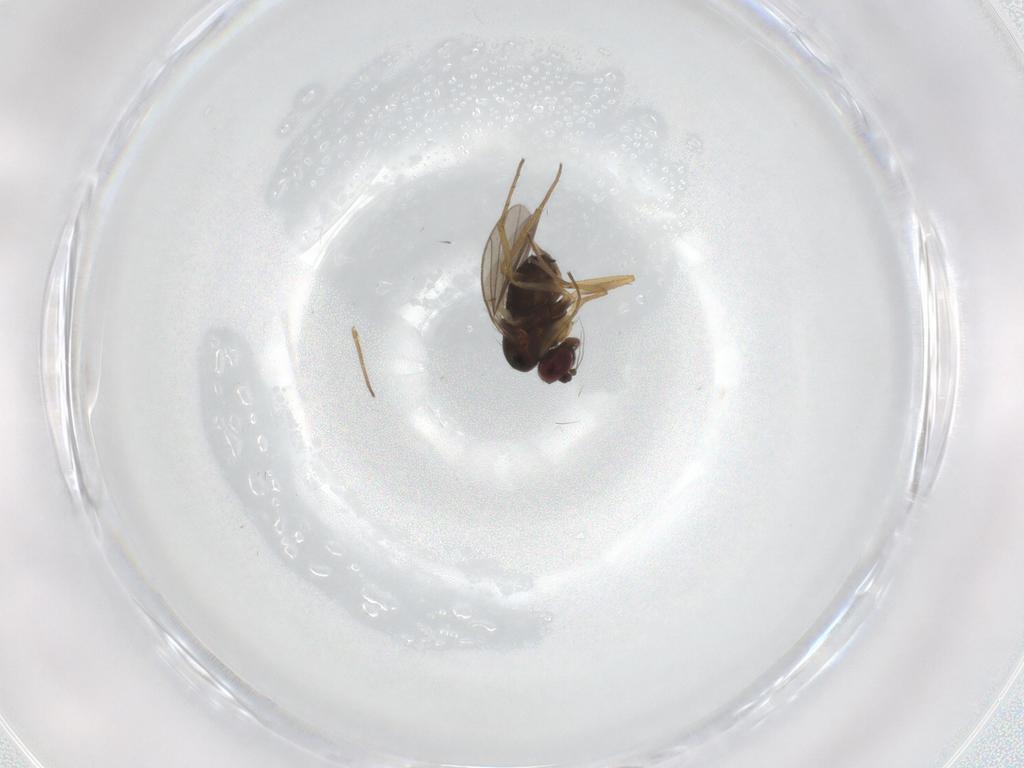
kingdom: Animalia
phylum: Arthropoda
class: Insecta
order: Diptera
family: Dolichopodidae
